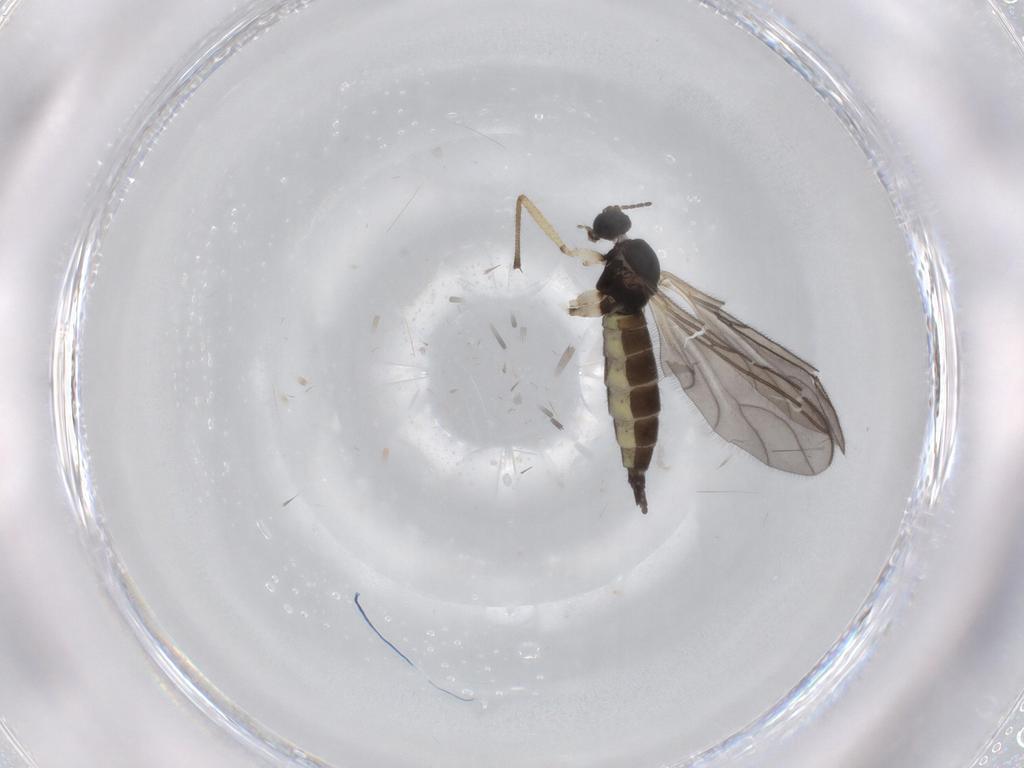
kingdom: Animalia
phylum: Arthropoda
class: Insecta
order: Diptera
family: Sciaridae
